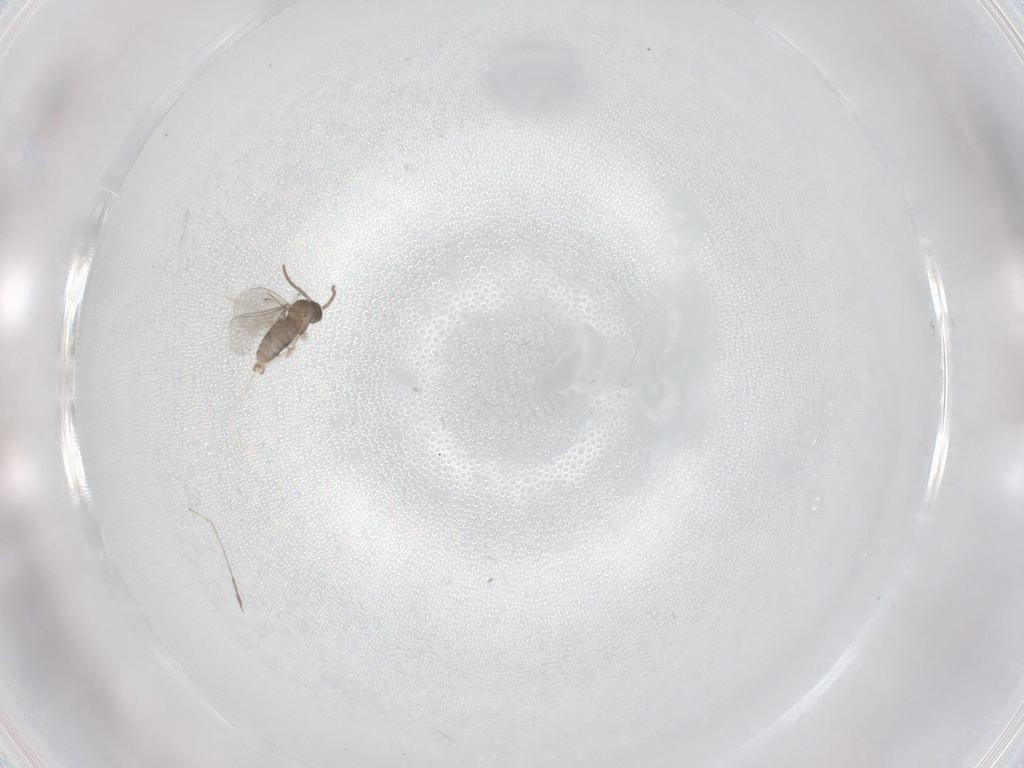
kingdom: Animalia
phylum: Arthropoda
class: Insecta
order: Diptera
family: Cecidomyiidae
